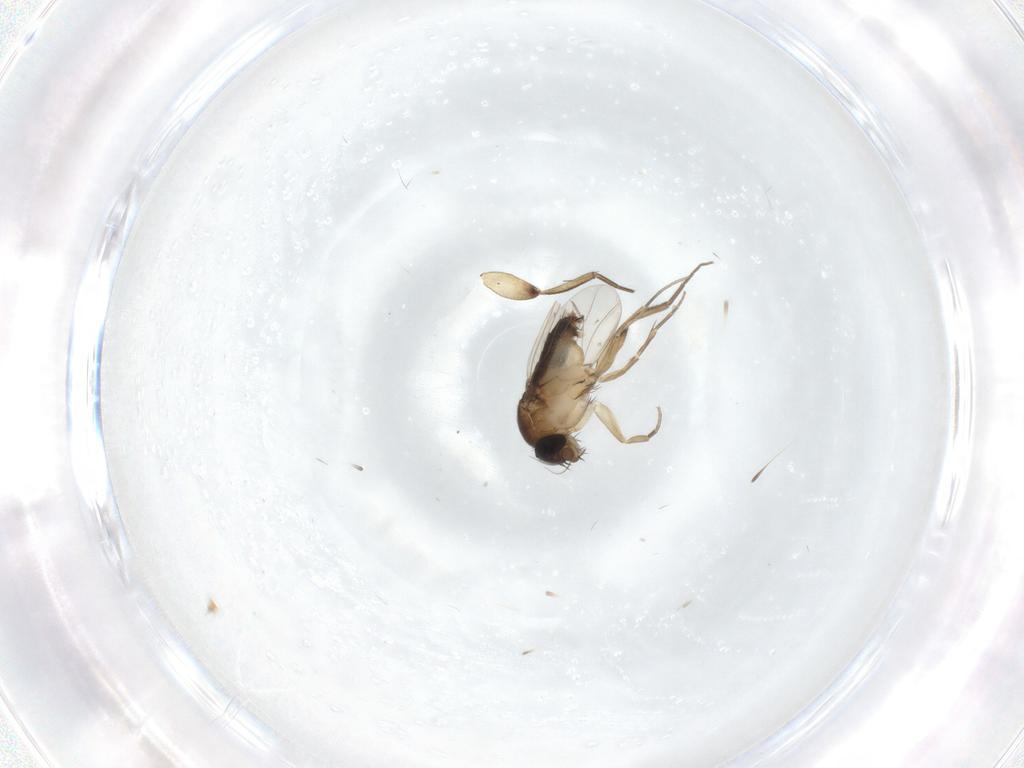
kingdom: Animalia
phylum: Arthropoda
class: Insecta
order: Diptera
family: Phoridae
